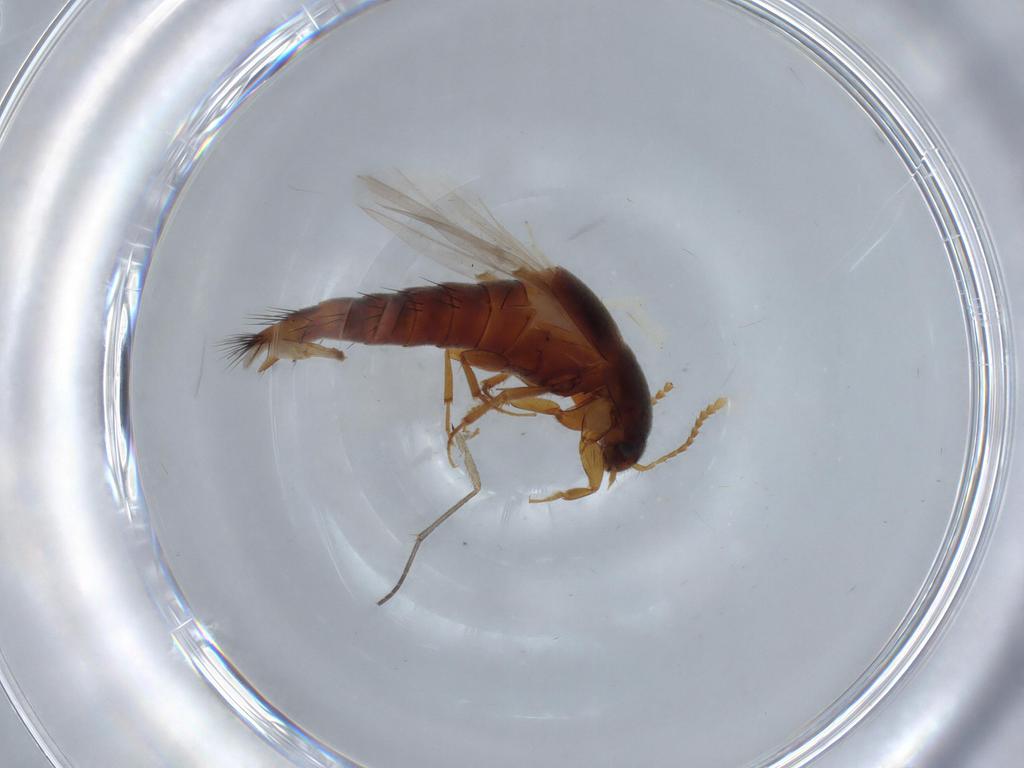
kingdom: Animalia
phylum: Arthropoda
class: Insecta
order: Coleoptera
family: Staphylinidae
